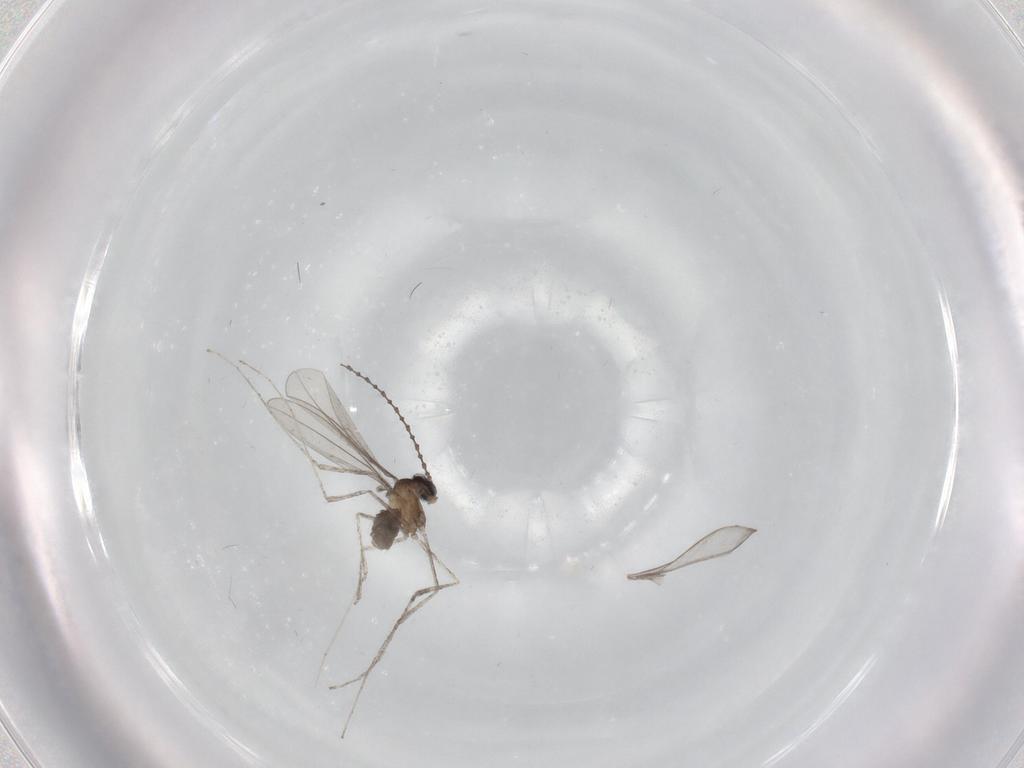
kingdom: Animalia
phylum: Arthropoda
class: Insecta
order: Diptera
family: Cecidomyiidae
